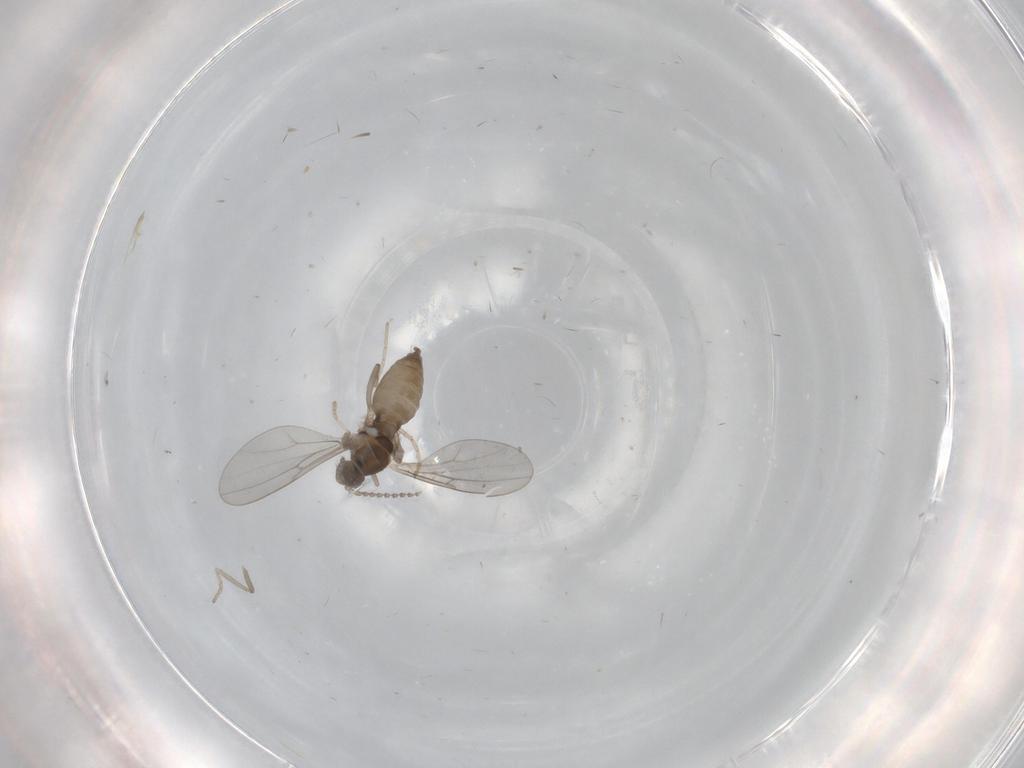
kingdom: Animalia
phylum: Arthropoda
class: Insecta
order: Diptera
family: Cecidomyiidae
